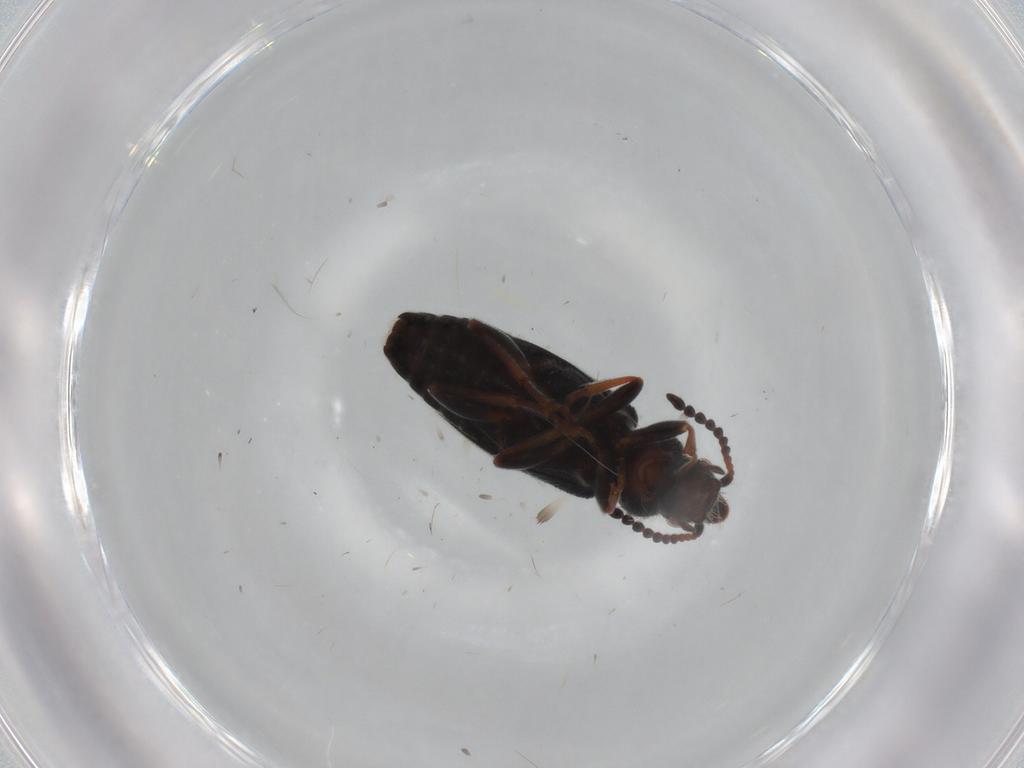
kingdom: Animalia
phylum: Arthropoda
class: Insecta
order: Coleoptera
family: Anthicidae
